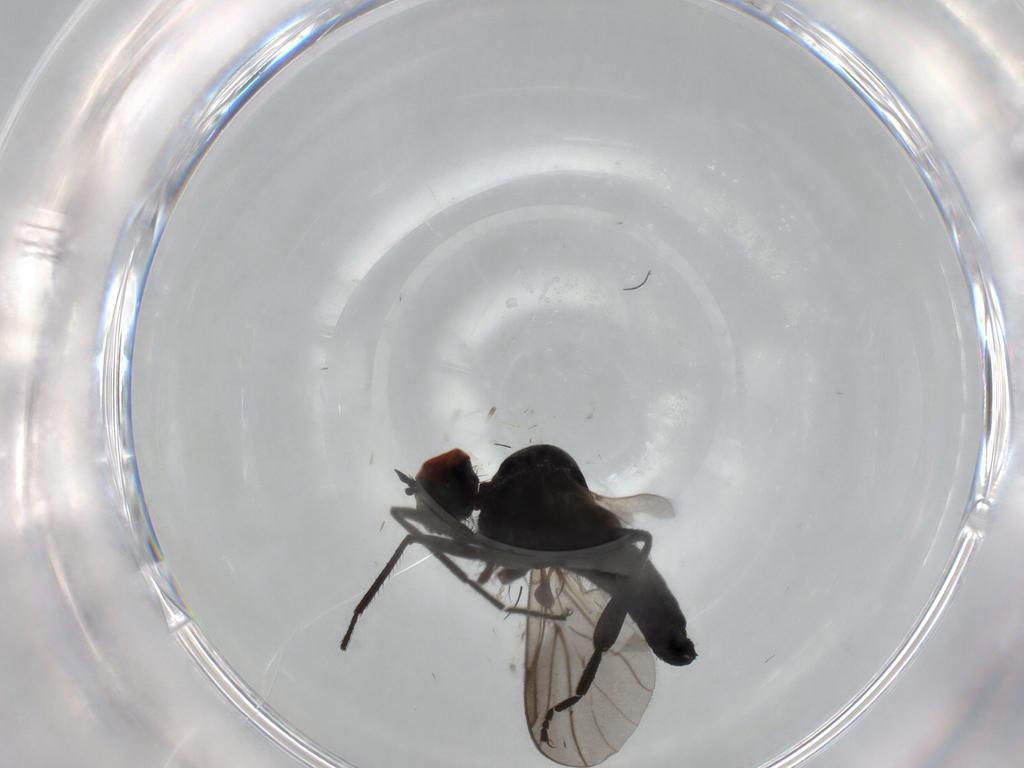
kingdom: Animalia
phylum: Arthropoda
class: Insecta
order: Diptera
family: Hybotidae
